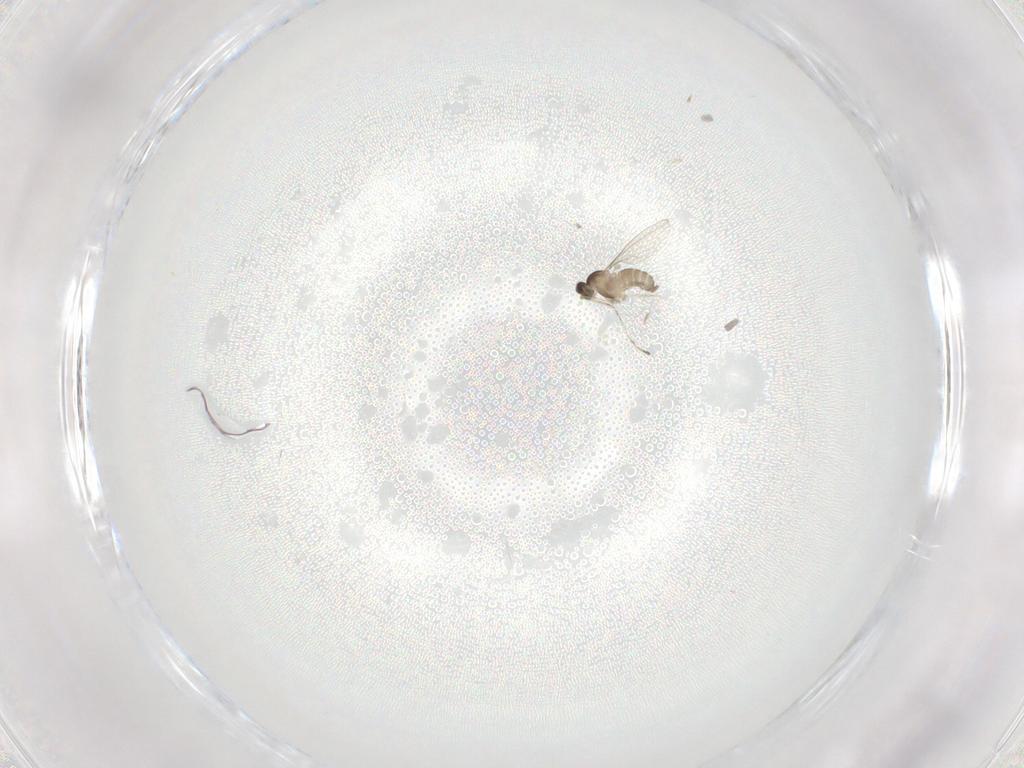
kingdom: Animalia
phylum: Arthropoda
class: Insecta
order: Diptera
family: Cecidomyiidae
